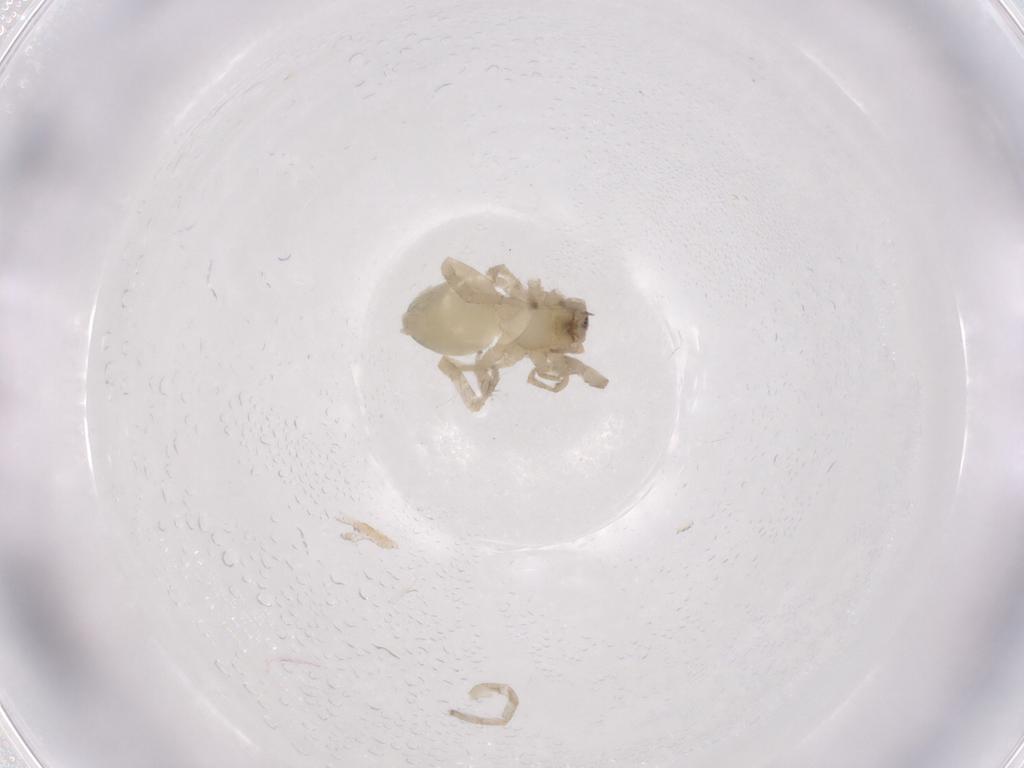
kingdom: Animalia
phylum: Arthropoda
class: Arachnida
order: Araneae
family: Anyphaenidae
